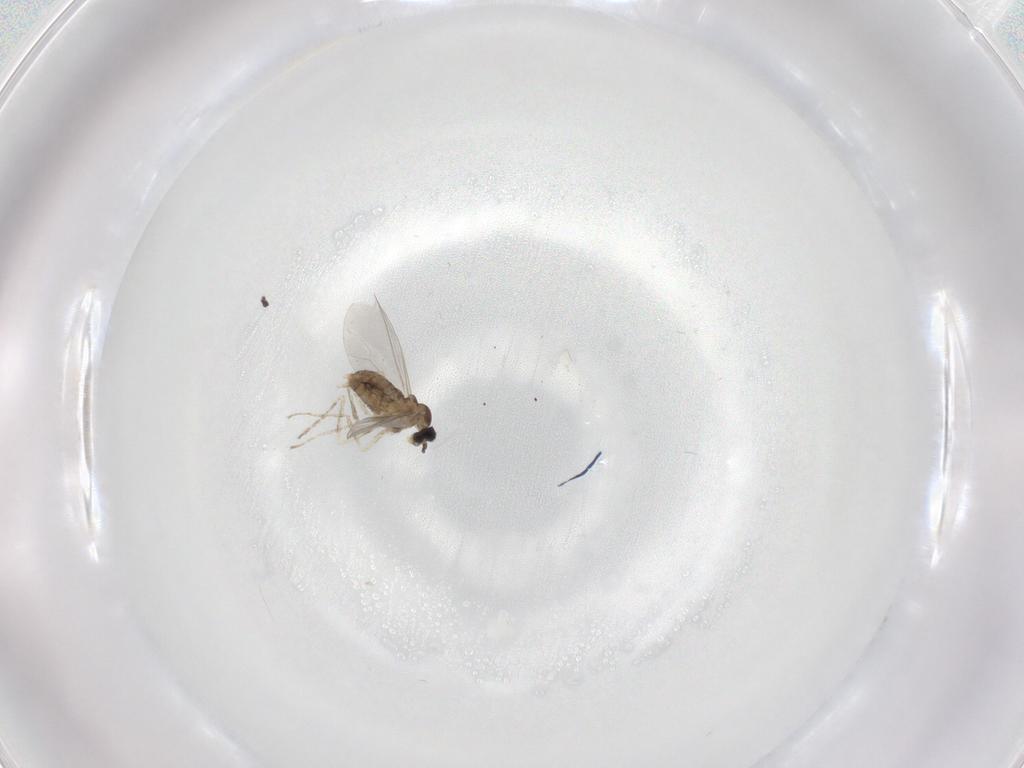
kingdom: Animalia
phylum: Arthropoda
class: Insecta
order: Diptera
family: Cecidomyiidae
